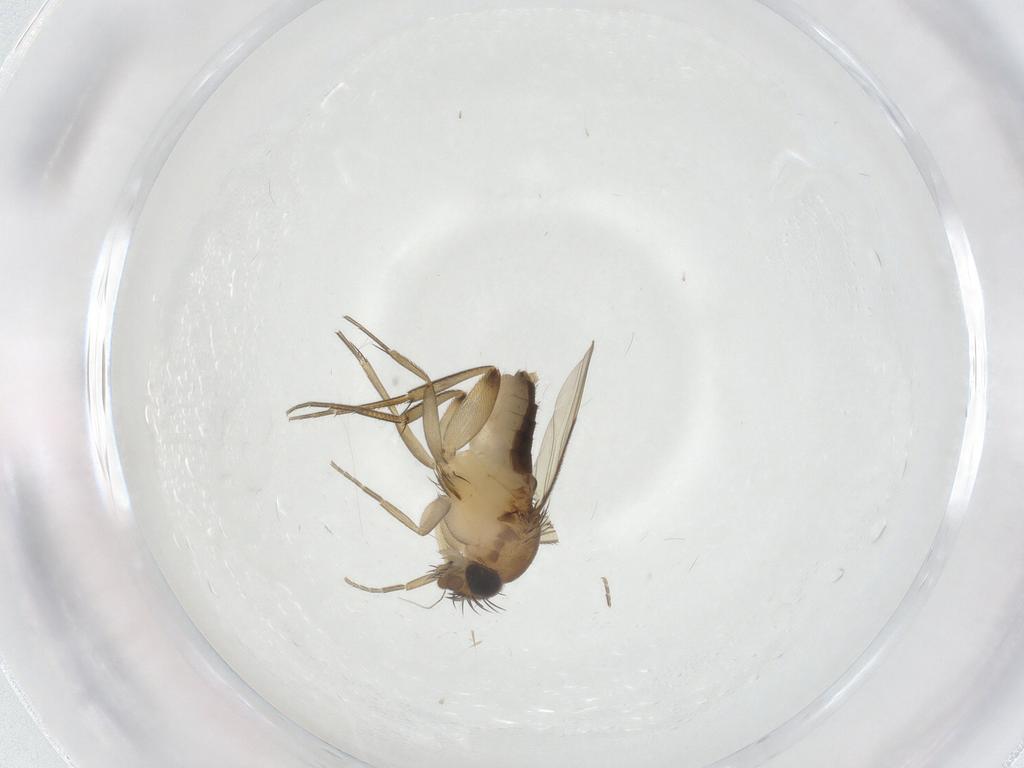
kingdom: Animalia
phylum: Arthropoda
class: Insecta
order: Diptera
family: Phoridae
